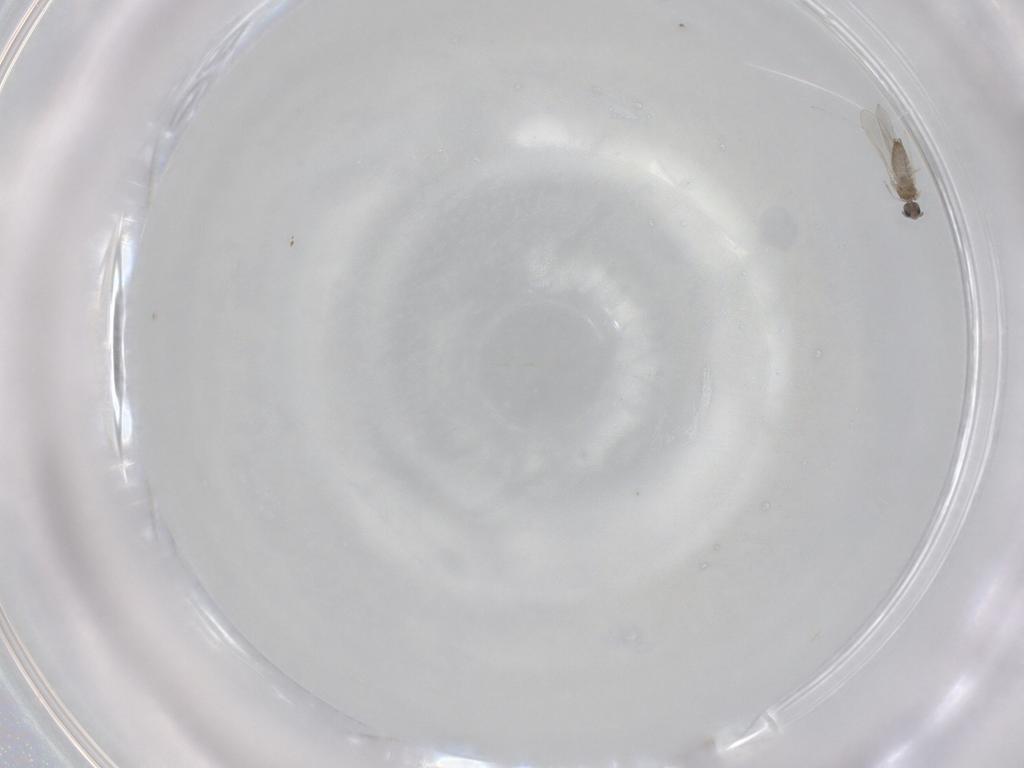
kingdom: Animalia
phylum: Arthropoda
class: Insecta
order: Diptera
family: Cecidomyiidae
